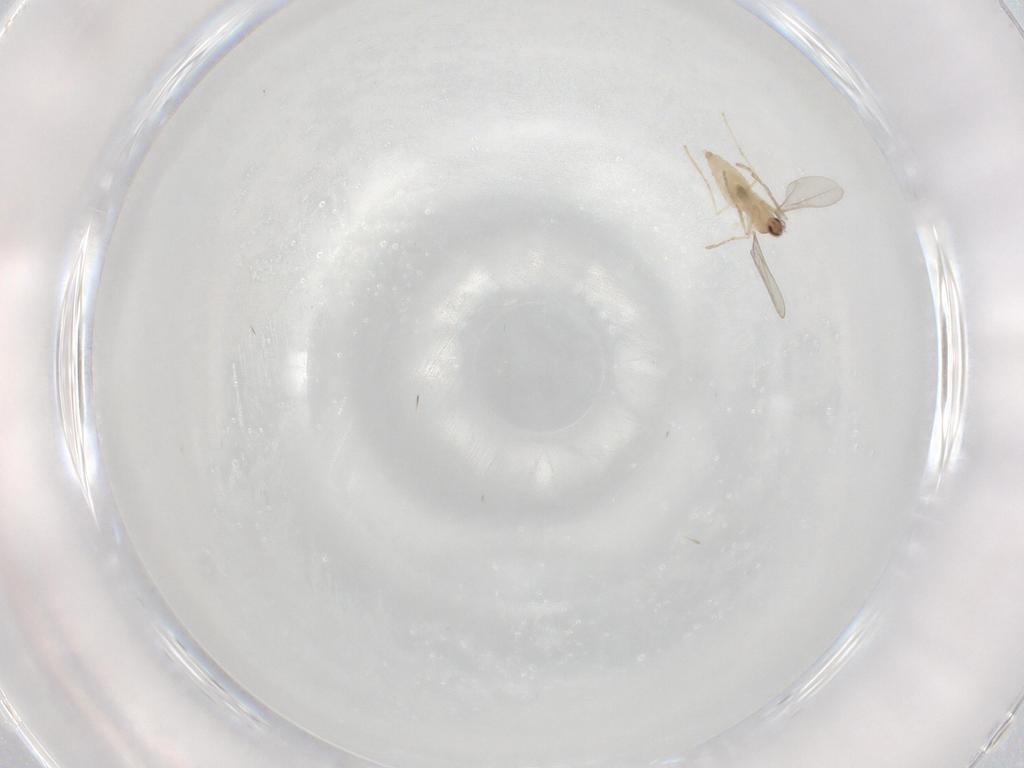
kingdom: Animalia
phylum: Arthropoda
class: Insecta
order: Diptera
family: Cecidomyiidae
